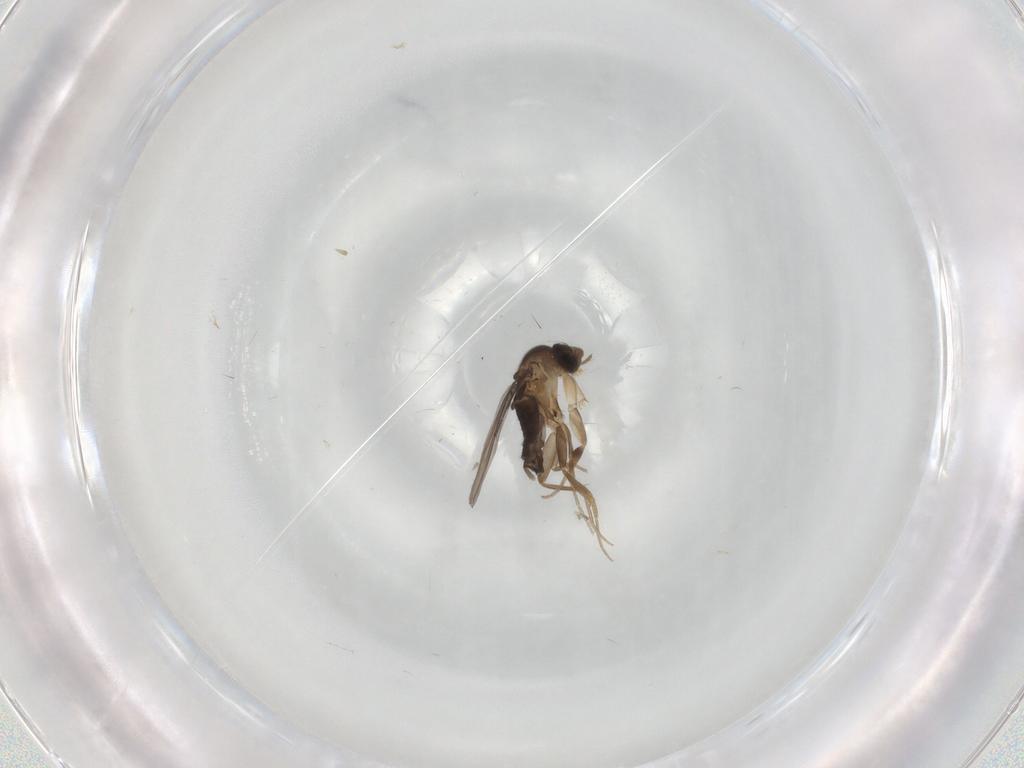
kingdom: Animalia
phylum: Arthropoda
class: Insecta
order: Diptera
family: Phoridae
